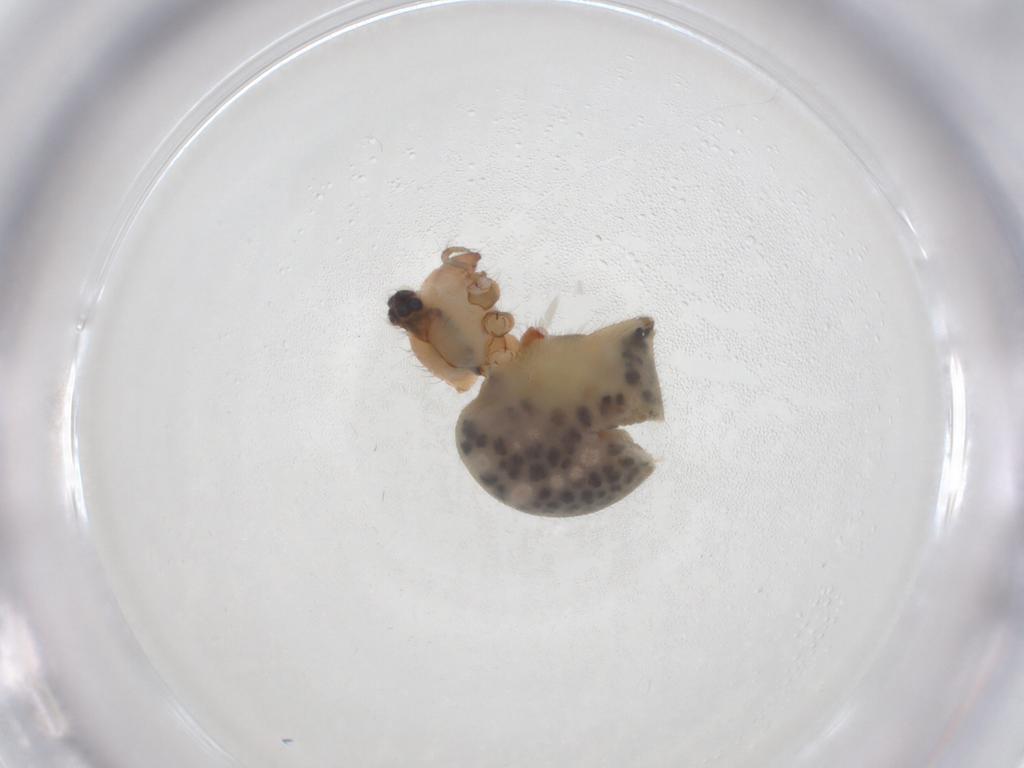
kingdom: Animalia
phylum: Arthropoda
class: Arachnida
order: Araneae
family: Pholcidae
